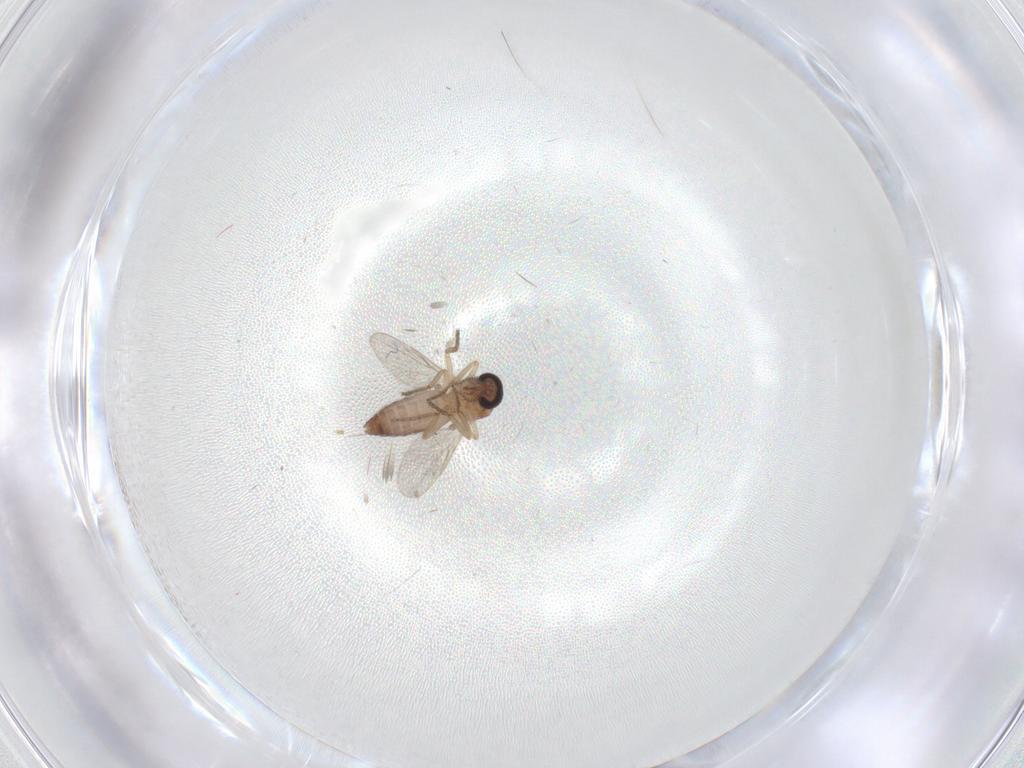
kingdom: Animalia
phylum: Arthropoda
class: Insecta
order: Diptera
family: Ceratopogonidae
